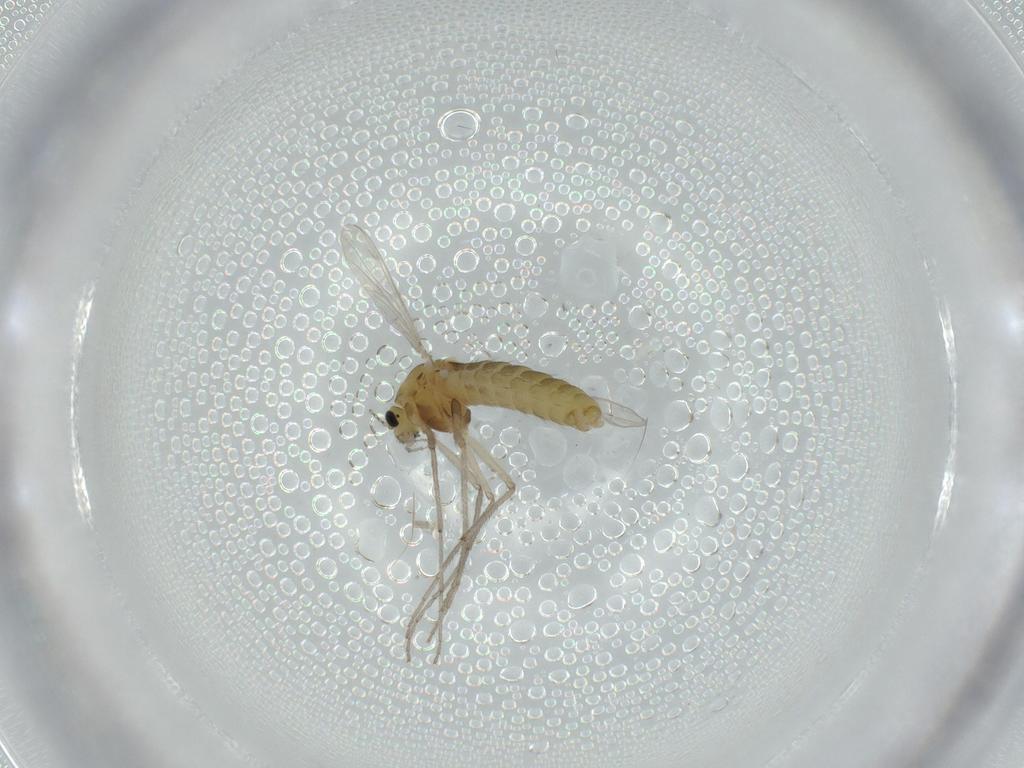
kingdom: Animalia
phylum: Arthropoda
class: Insecta
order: Diptera
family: Chironomidae
